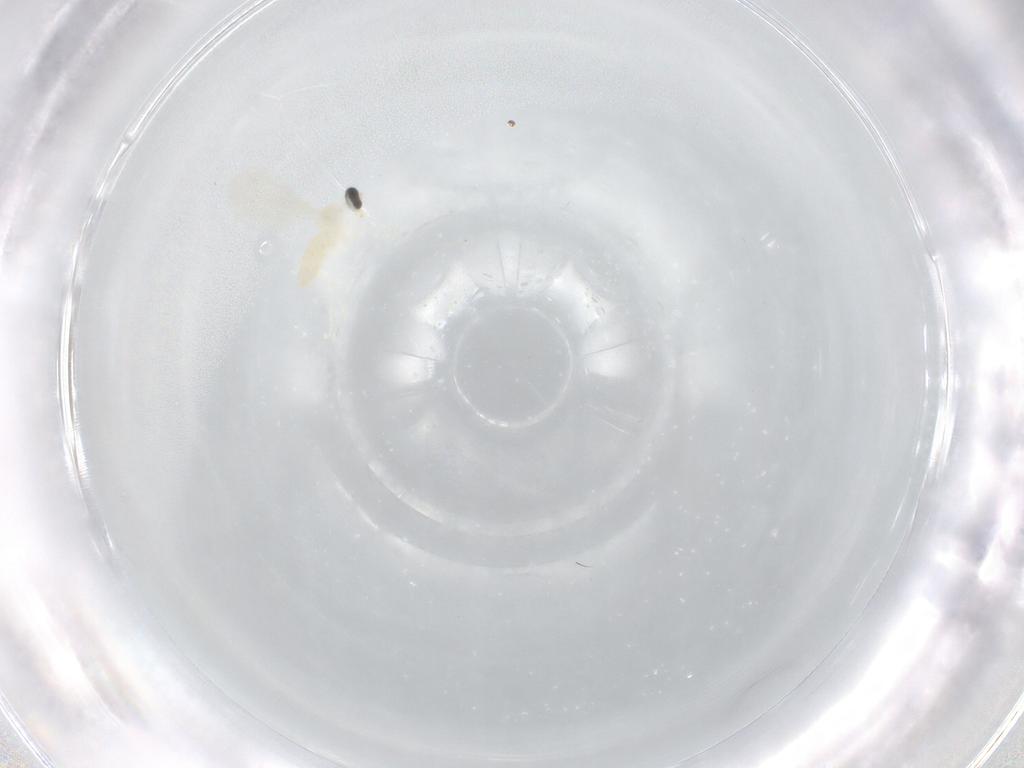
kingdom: Animalia
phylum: Arthropoda
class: Insecta
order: Diptera
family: Cecidomyiidae
